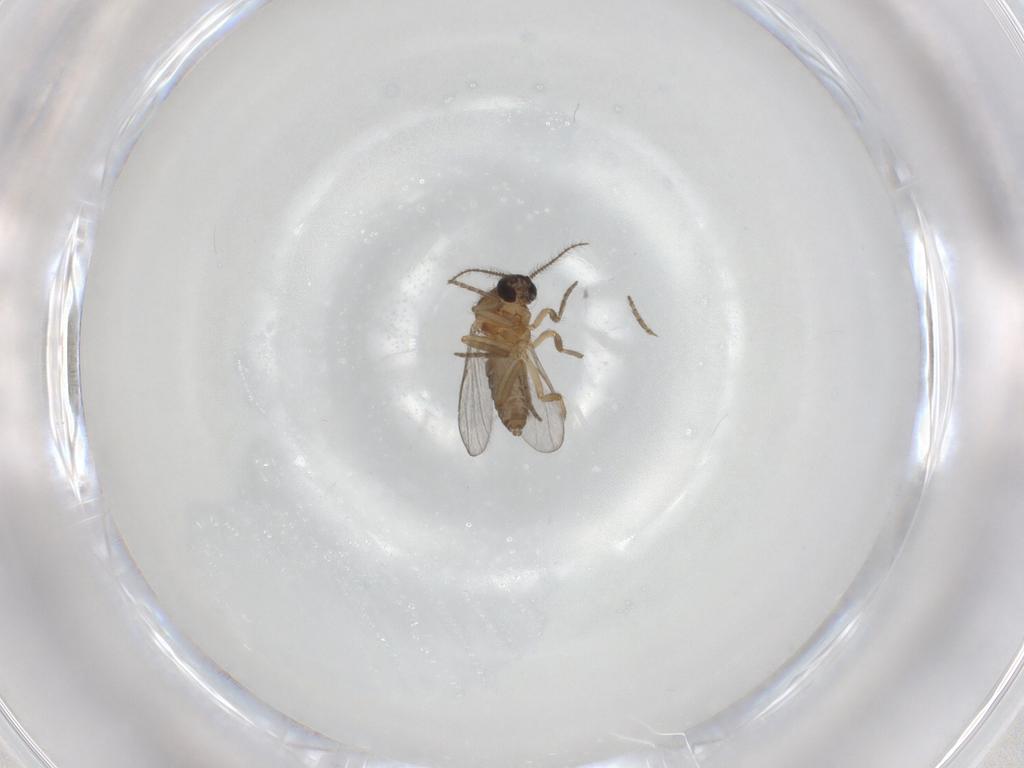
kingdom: Animalia
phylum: Arthropoda
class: Insecta
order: Diptera
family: Ceratopogonidae
